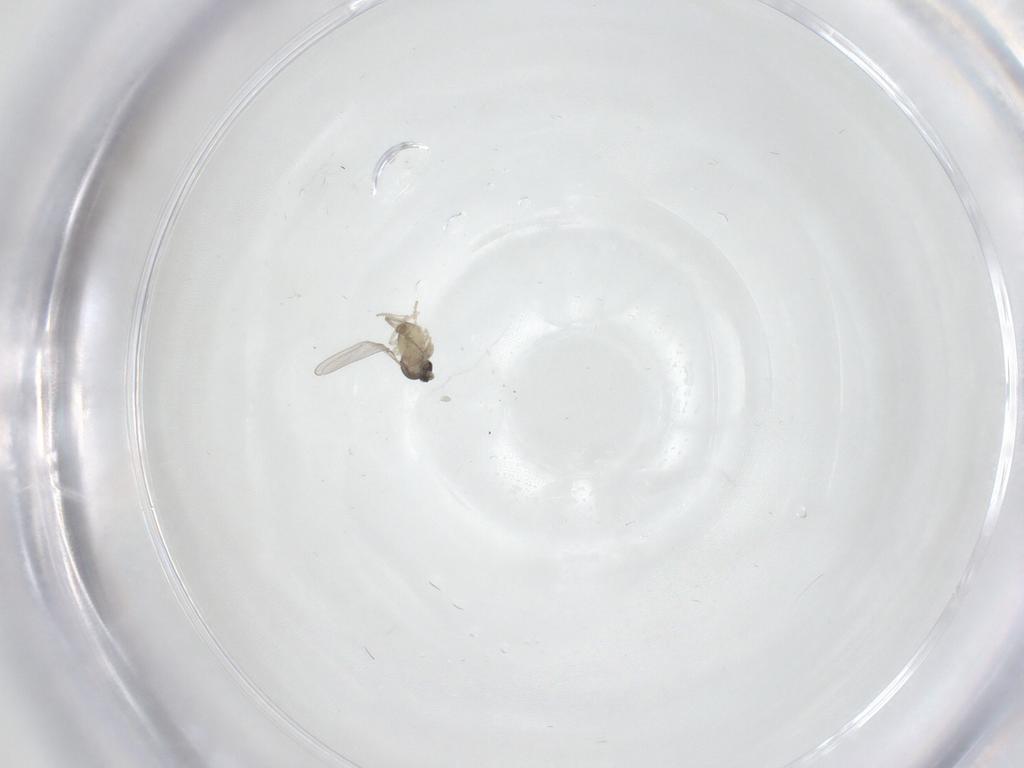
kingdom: Animalia
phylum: Arthropoda
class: Insecta
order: Diptera
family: Cecidomyiidae
